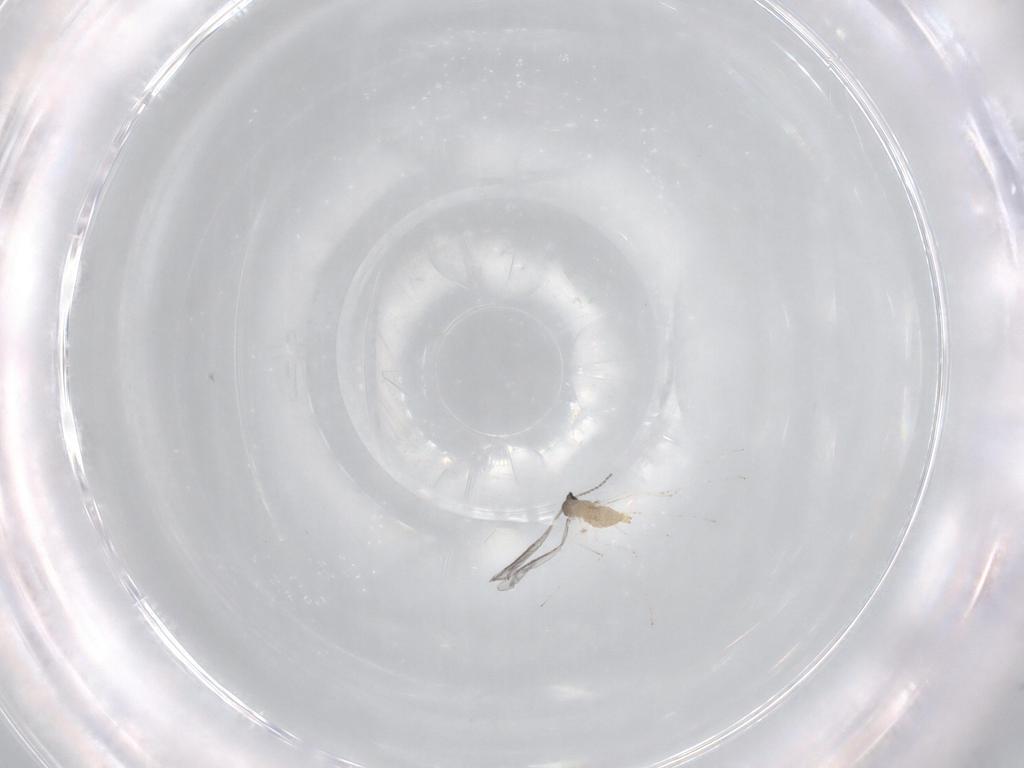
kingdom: Animalia
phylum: Arthropoda
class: Insecta
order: Diptera
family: Cecidomyiidae
